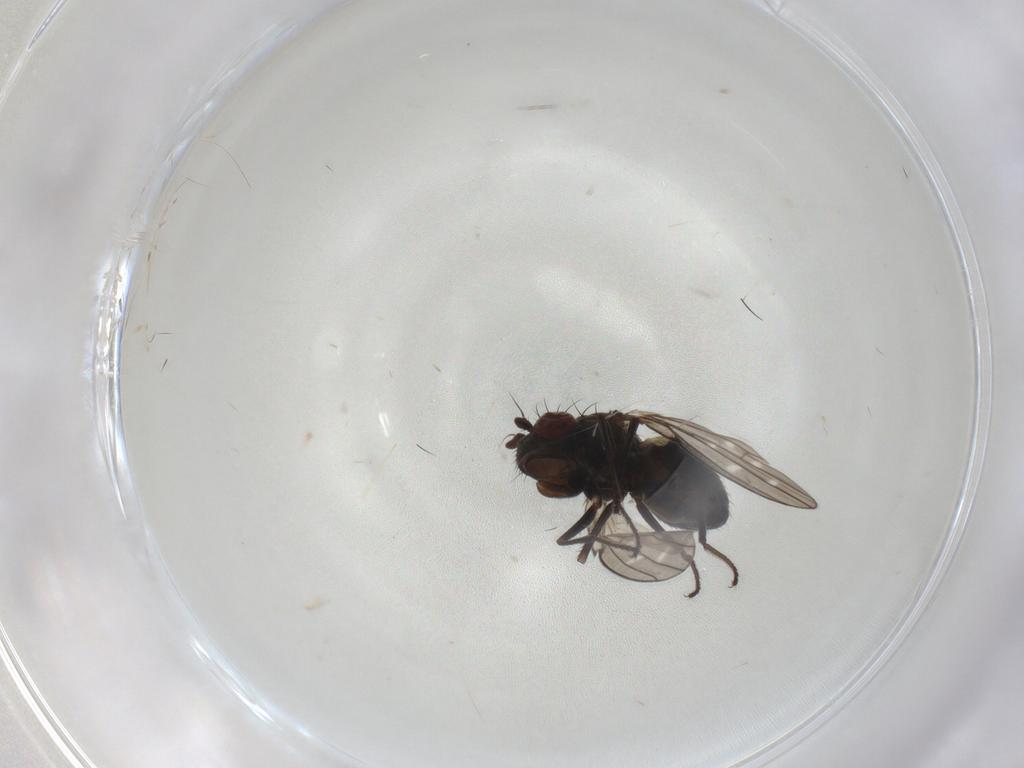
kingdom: Animalia
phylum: Arthropoda
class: Insecta
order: Diptera
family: Ephydridae
